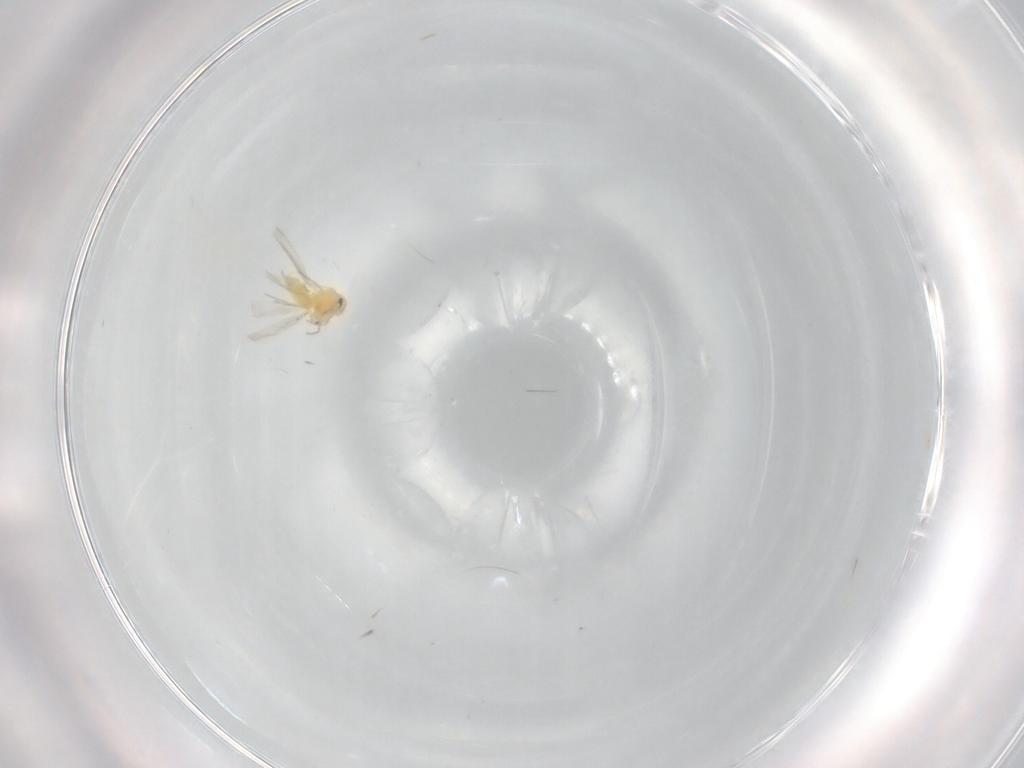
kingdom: Animalia
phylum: Arthropoda
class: Insecta
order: Hemiptera
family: Aleyrodidae
